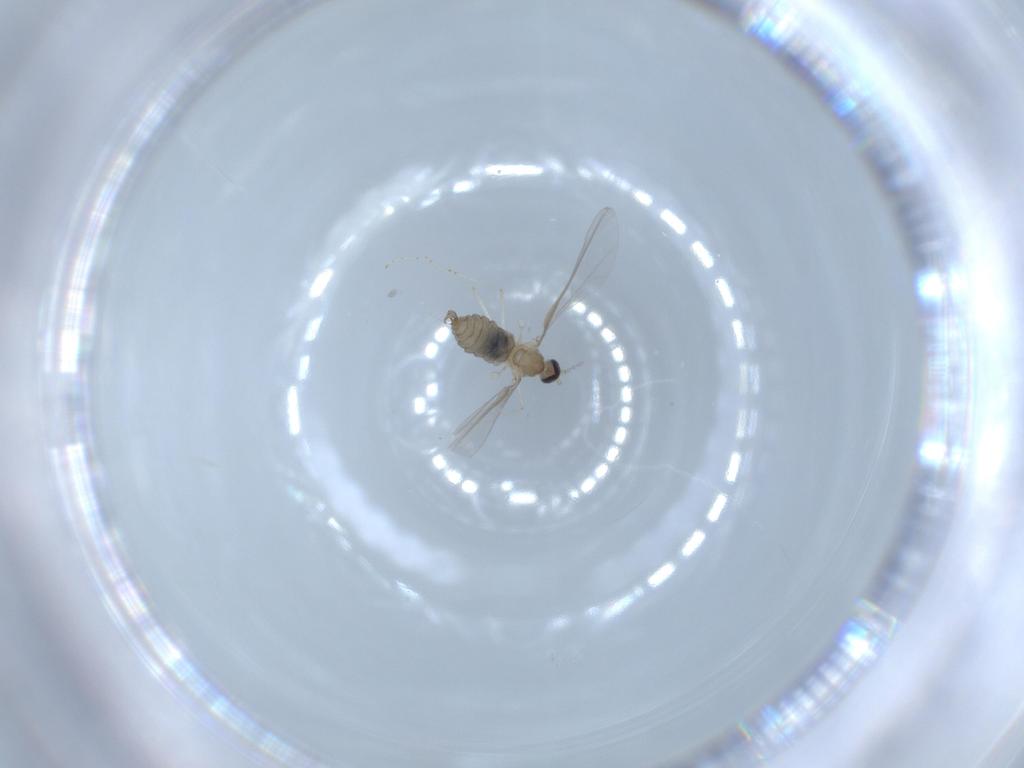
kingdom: Animalia
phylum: Arthropoda
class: Insecta
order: Diptera
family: Cecidomyiidae
